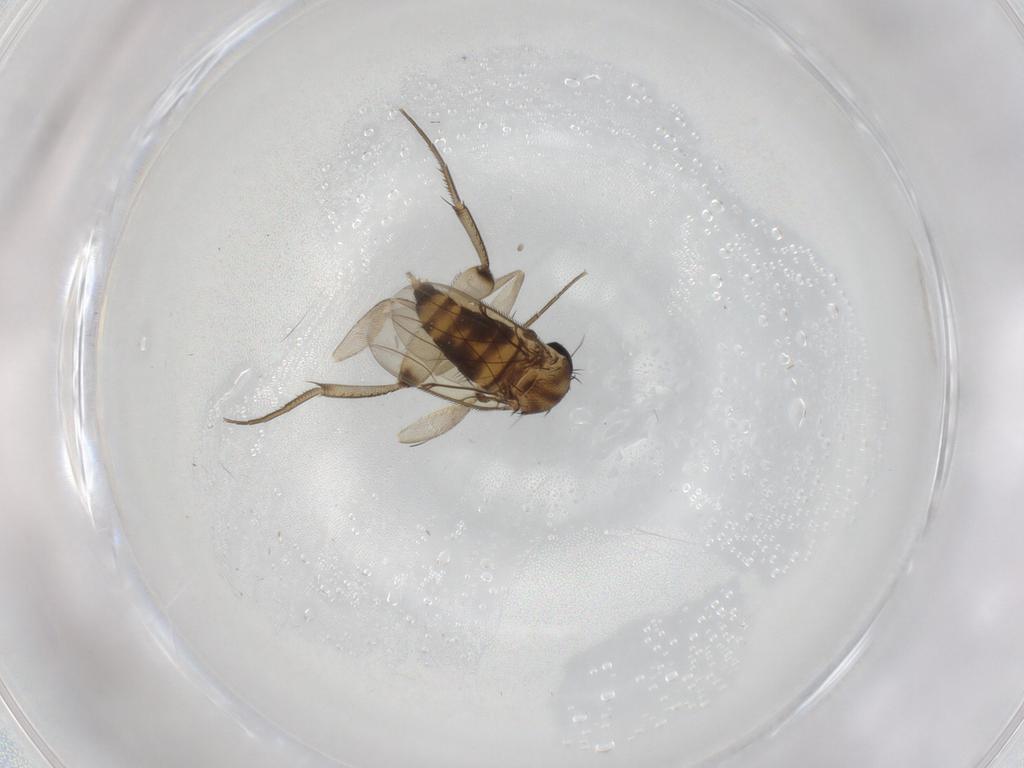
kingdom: Animalia
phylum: Arthropoda
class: Insecta
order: Diptera
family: Phoridae
